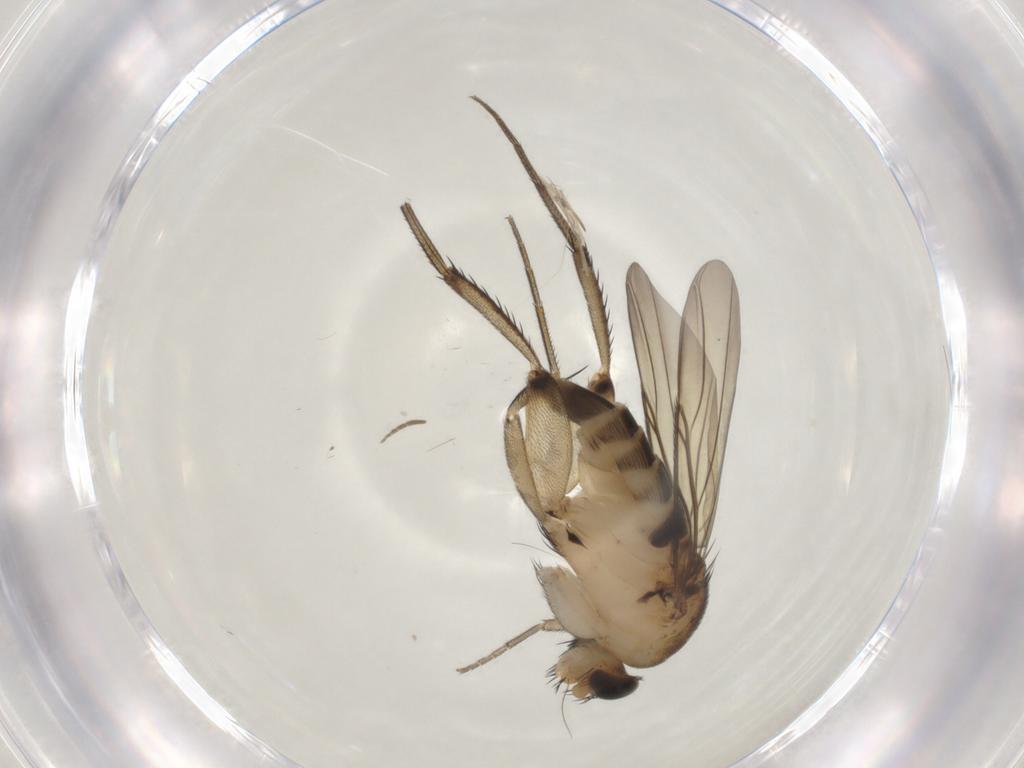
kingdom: Animalia
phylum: Arthropoda
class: Insecta
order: Diptera
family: Phoridae
